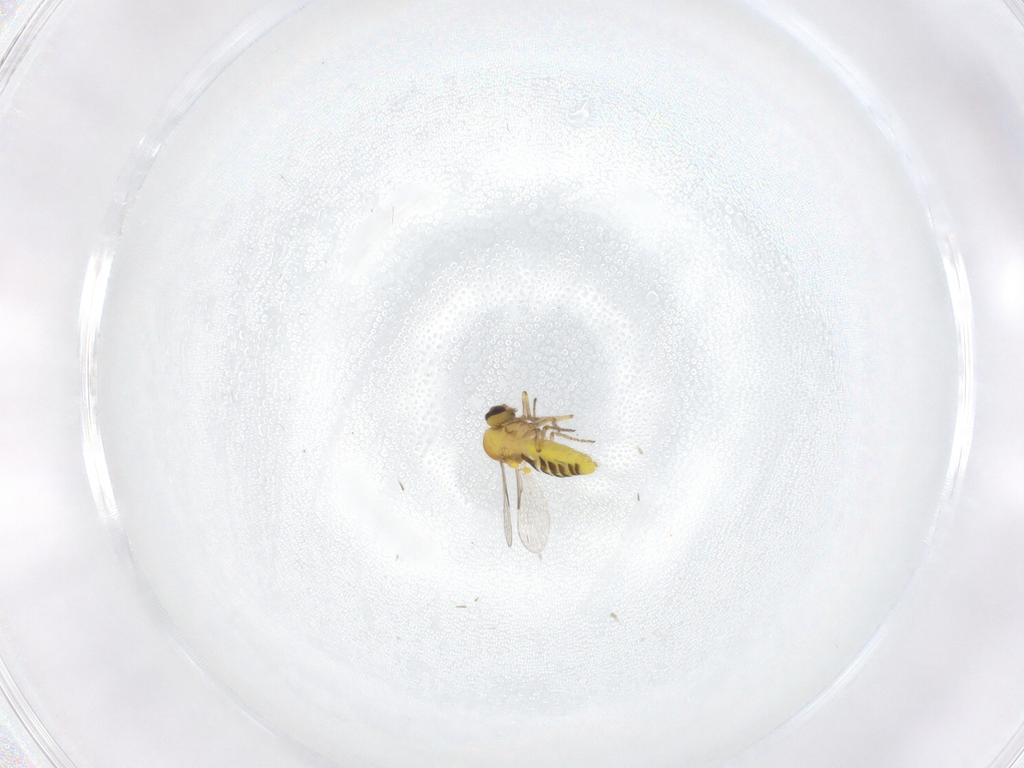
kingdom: Animalia
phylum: Arthropoda
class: Insecta
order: Diptera
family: Ceratopogonidae
